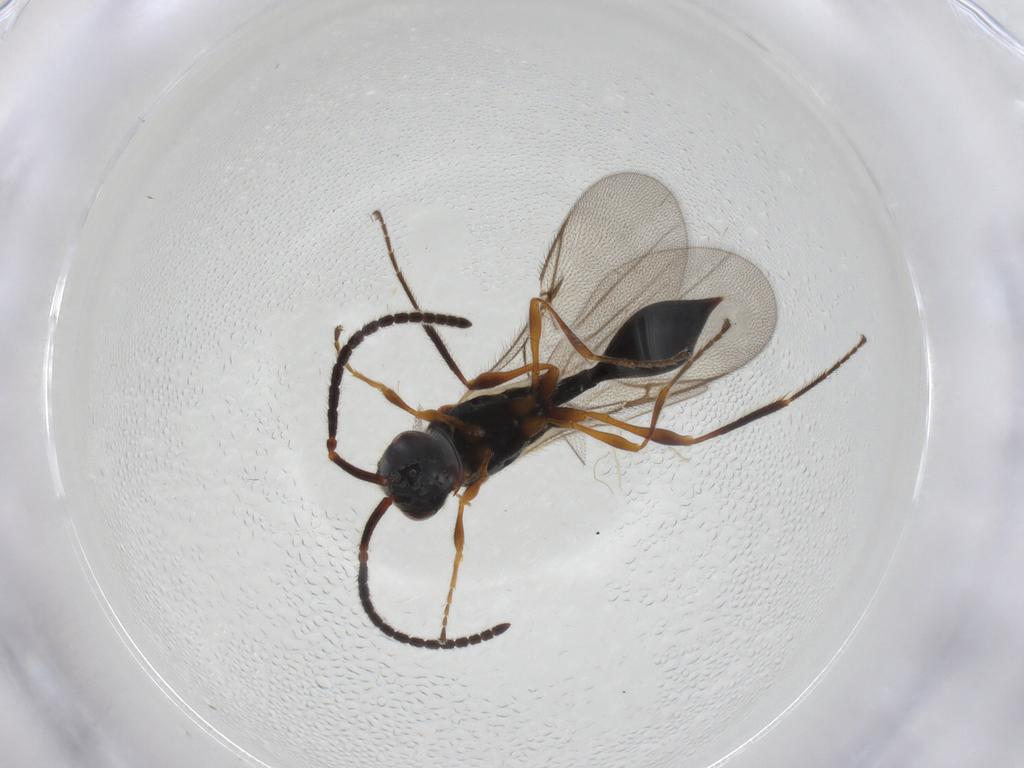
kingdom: Animalia
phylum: Arthropoda
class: Insecta
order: Hymenoptera
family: Diapriidae
